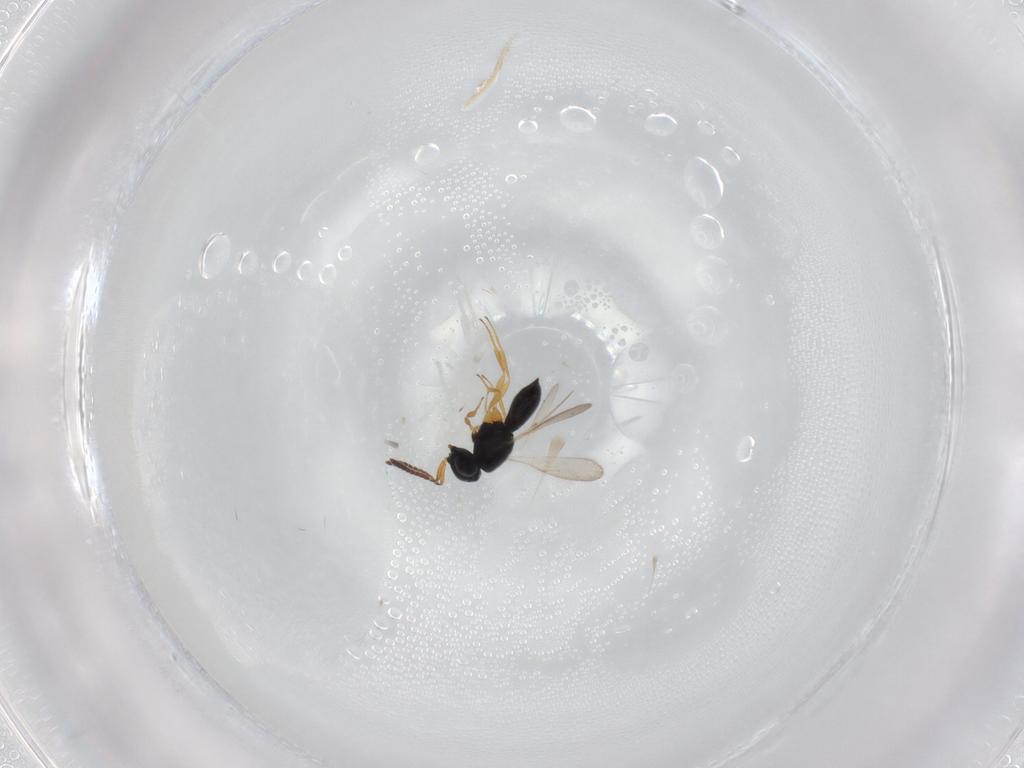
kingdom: Animalia
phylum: Arthropoda
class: Insecta
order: Hymenoptera
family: Scelionidae
